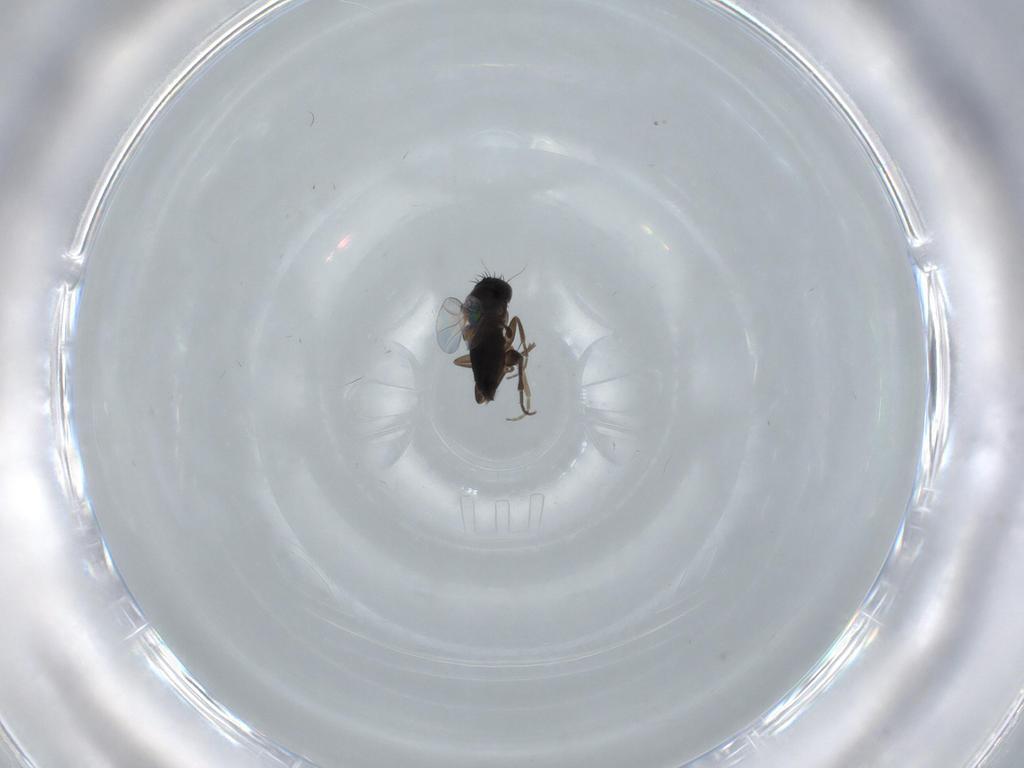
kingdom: Animalia
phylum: Arthropoda
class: Insecta
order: Diptera
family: Phoridae
